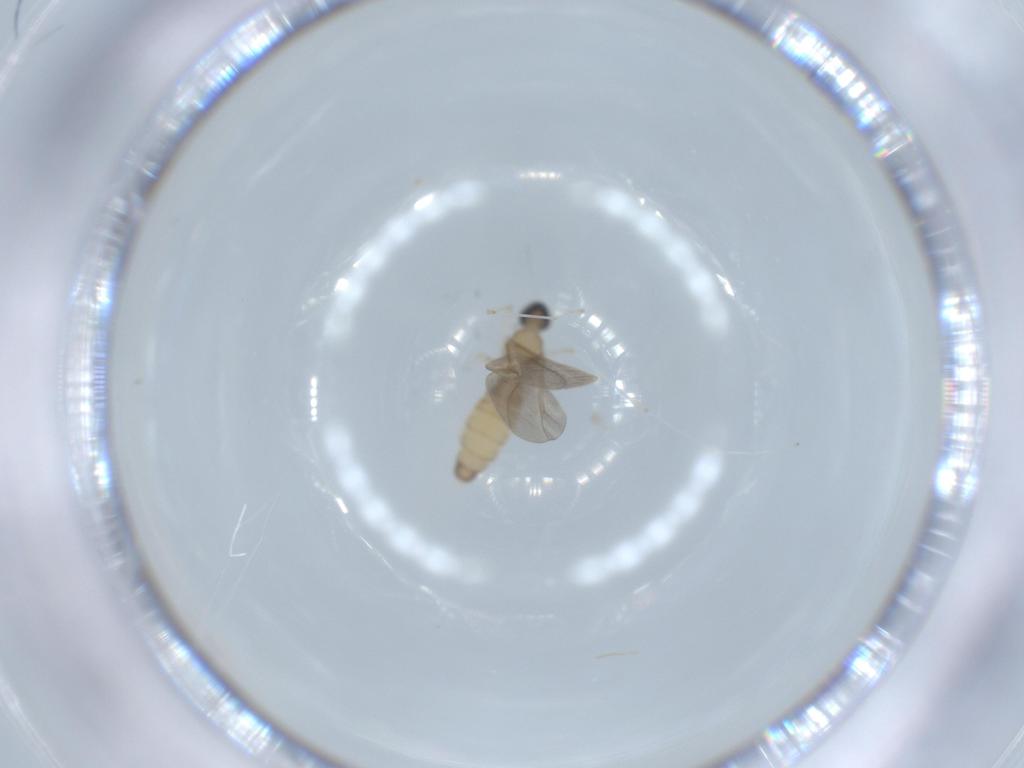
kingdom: Animalia
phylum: Arthropoda
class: Insecta
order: Diptera
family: Cecidomyiidae
